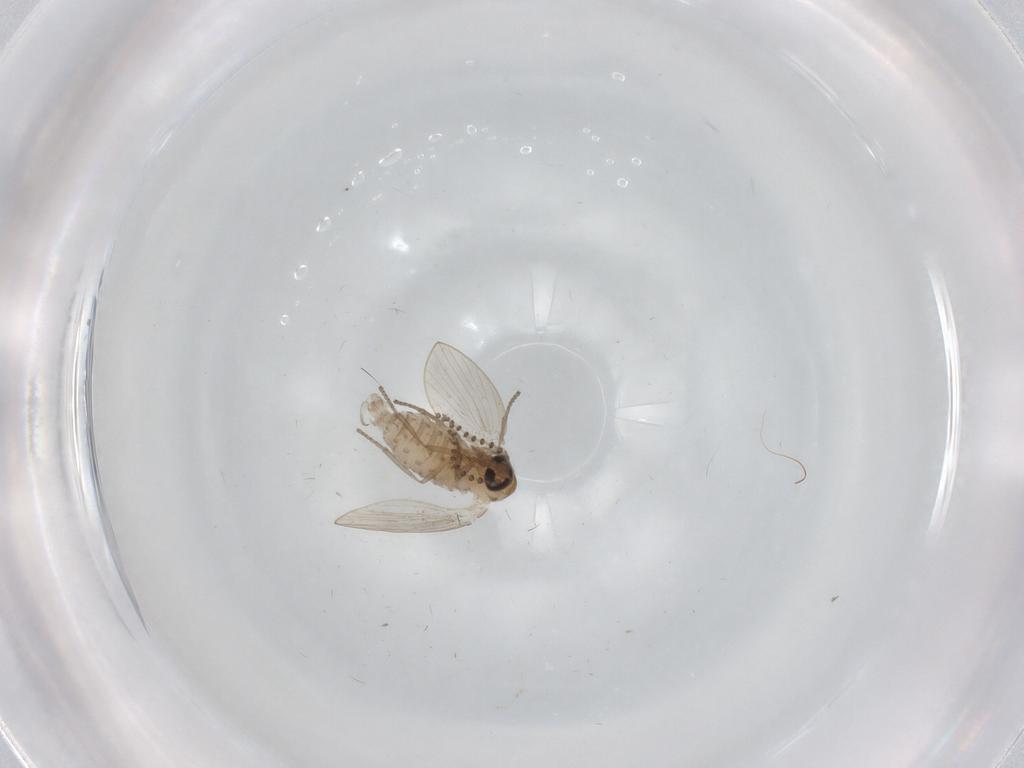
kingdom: Animalia
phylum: Arthropoda
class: Insecta
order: Diptera
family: Psychodidae
